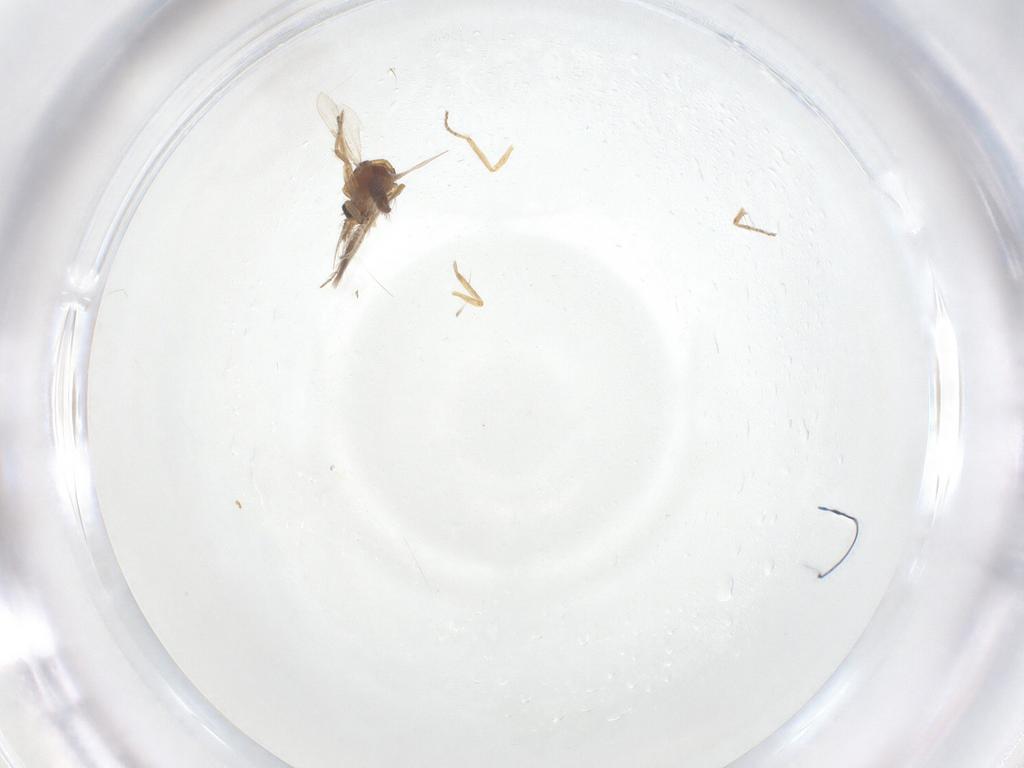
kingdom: Animalia
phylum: Arthropoda
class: Insecta
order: Diptera
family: Ceratopogonidae
